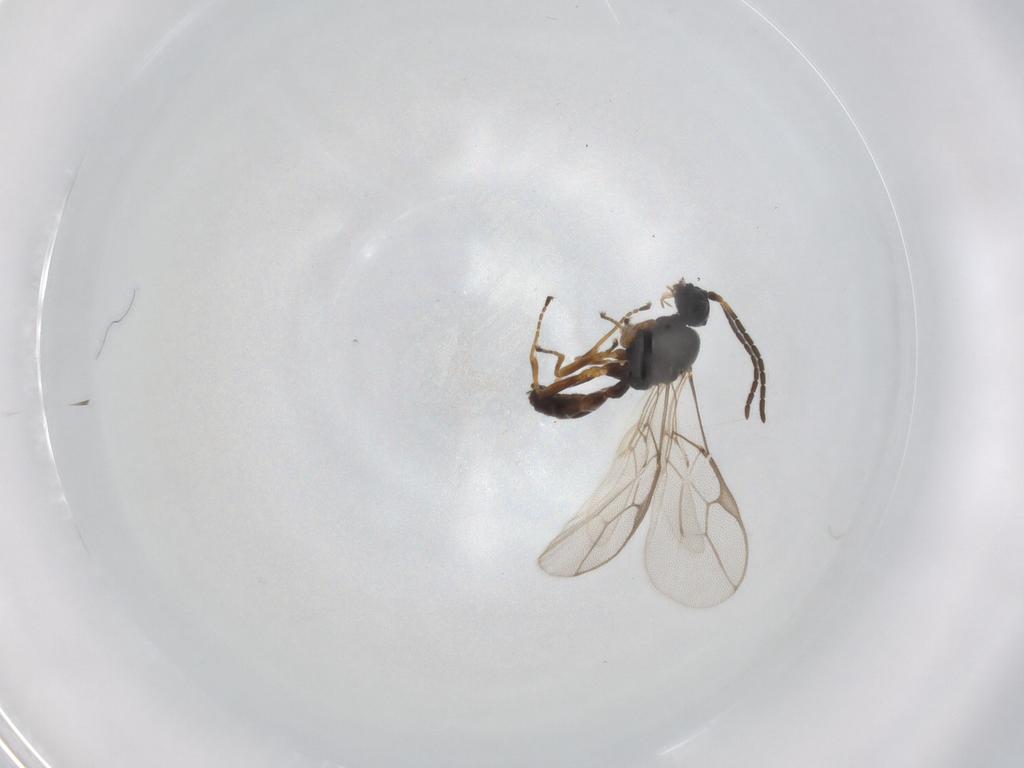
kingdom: Animalia
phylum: Arthropoda
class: Insecta
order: Hymenoptera
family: Braconidae
